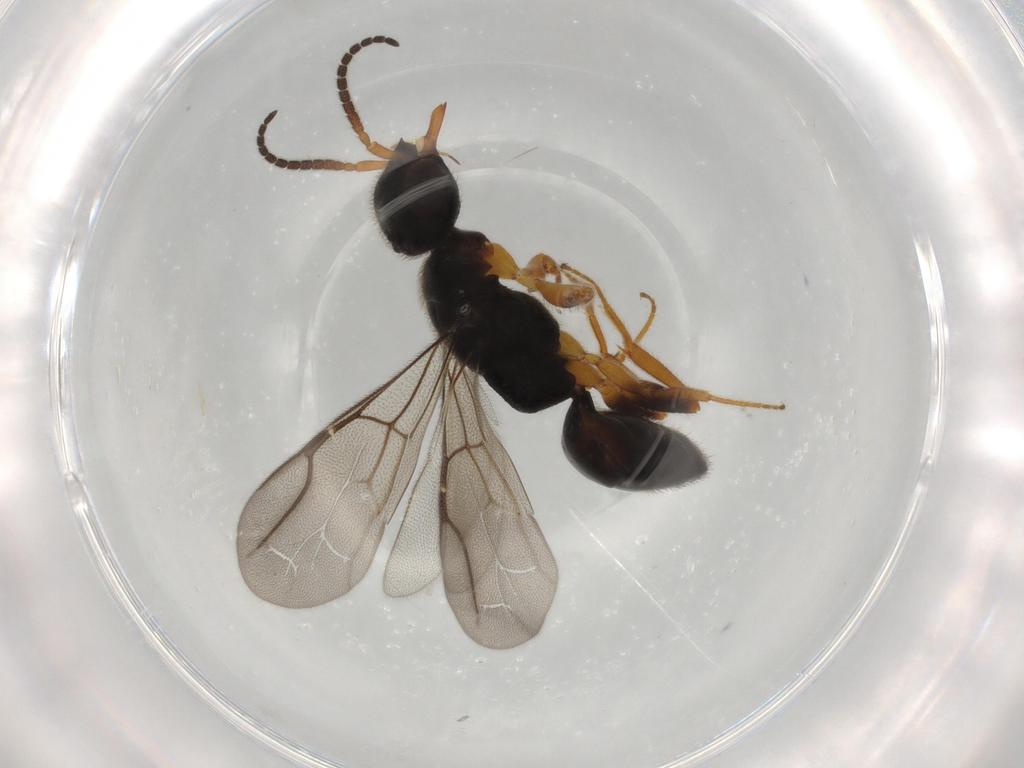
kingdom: Animalia
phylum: Arthropoda
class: Insecta
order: Hymenoptera
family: Bethylidae
